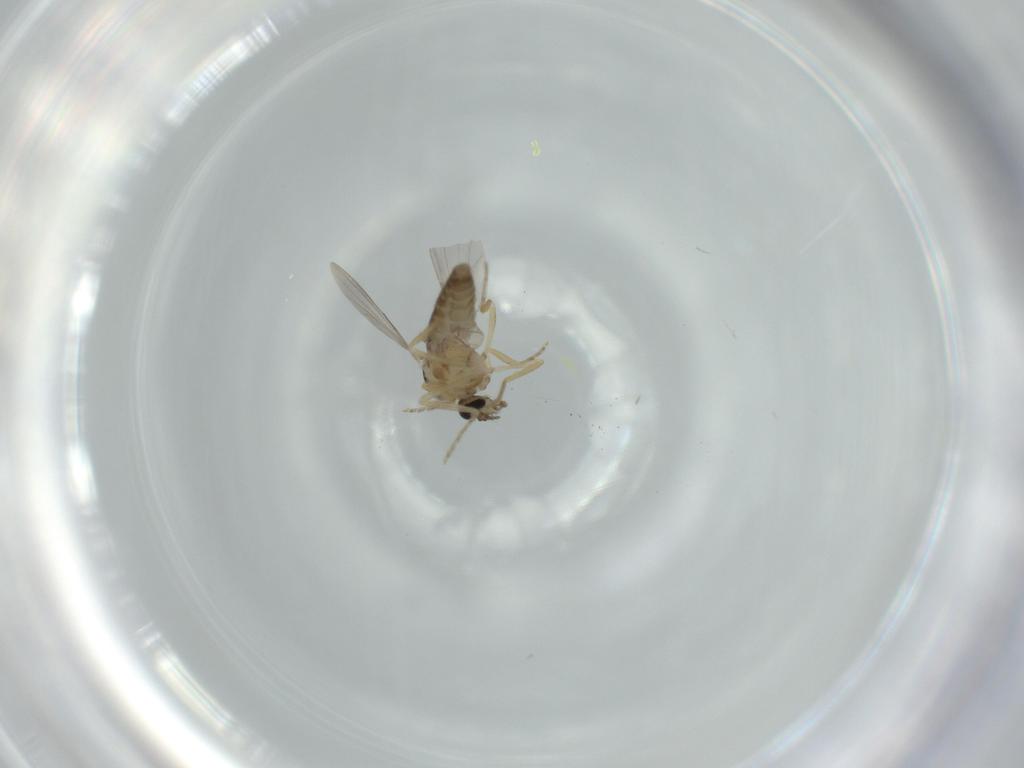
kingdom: Animalia
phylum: Arthropoda
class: Insecta
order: Diptera
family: Ceratopogonidae
